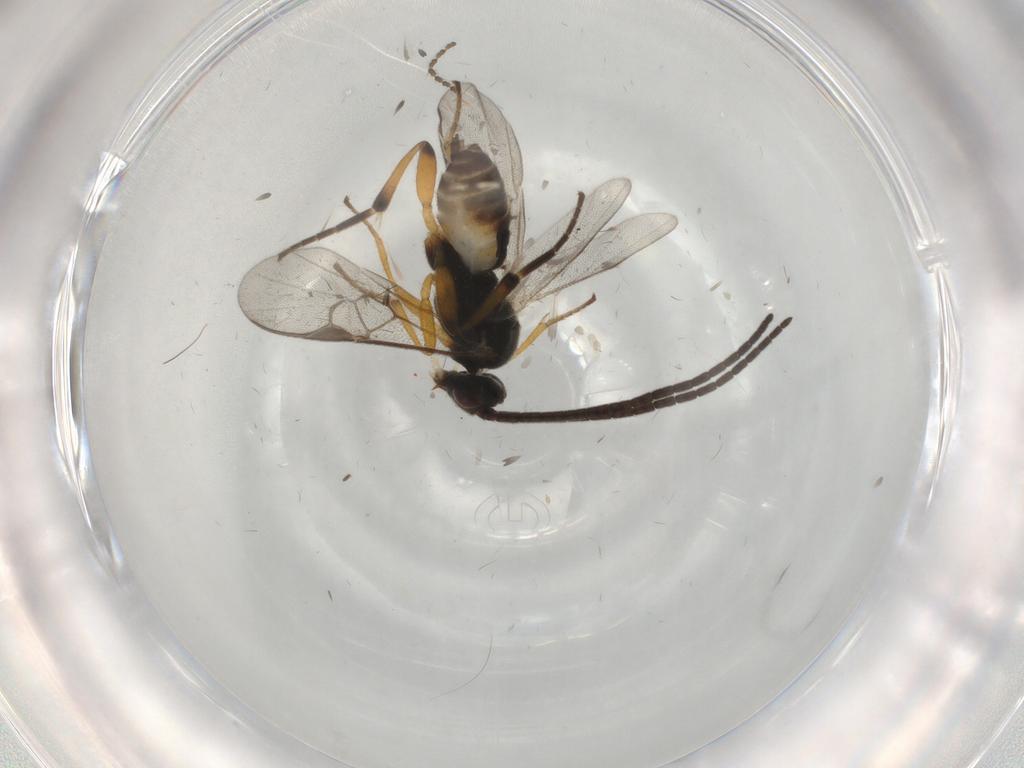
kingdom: Animalia
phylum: Arthropoda
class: Insecta
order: Hymenoptera
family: Braconidae
